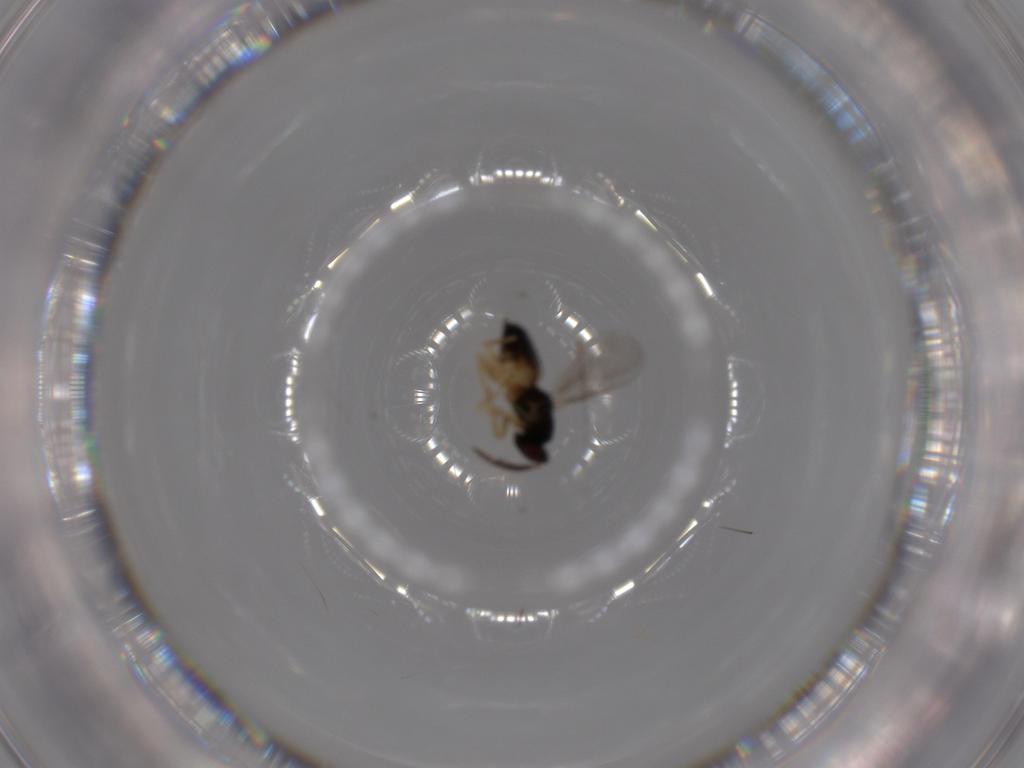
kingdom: Animalia
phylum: Arthropoda
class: Insecta
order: Hymenoptera
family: Eulophidae
